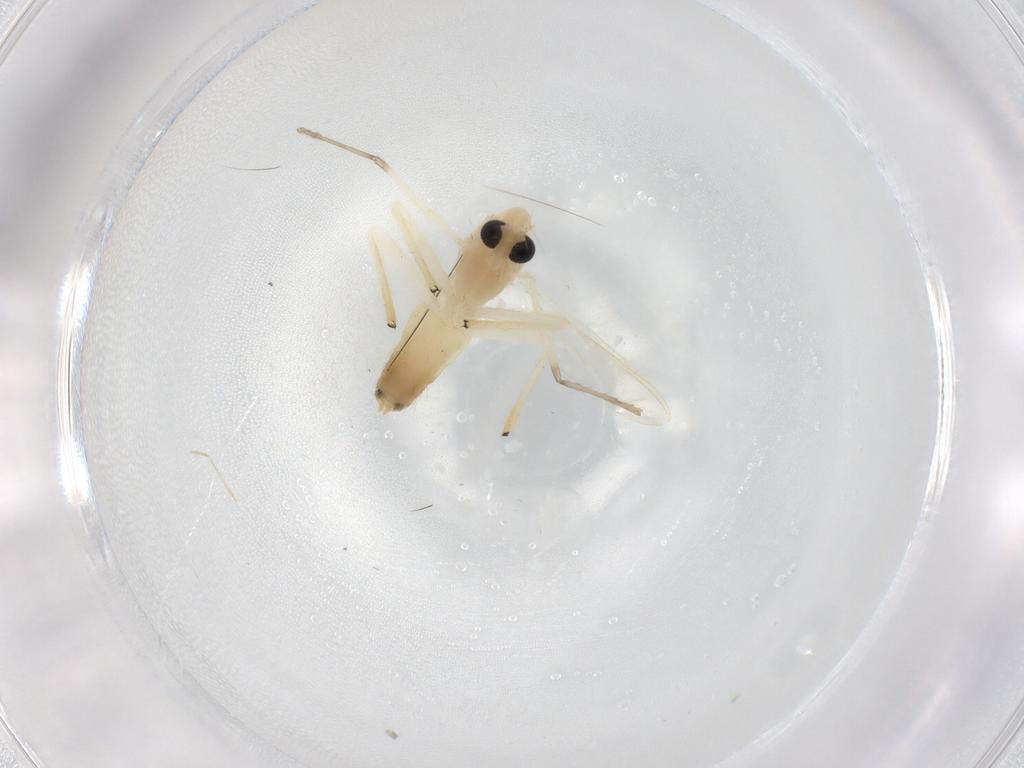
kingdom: Animalia
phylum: Arthropoda
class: Insecta
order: Diptera
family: Chironomidae
